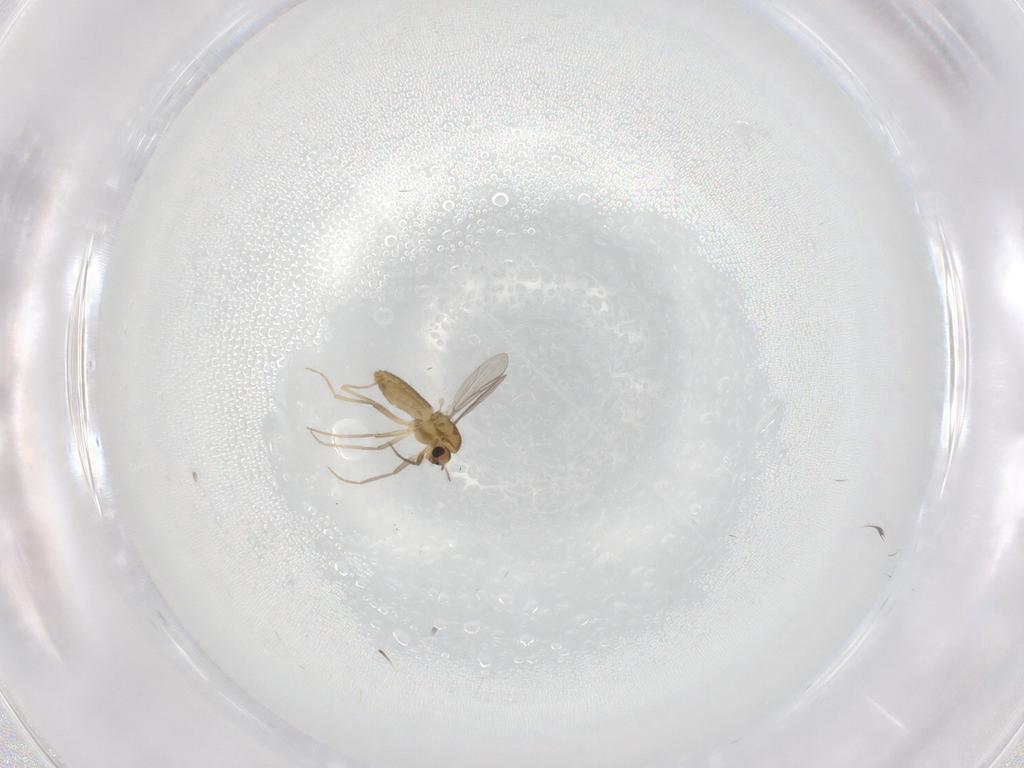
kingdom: Animalia
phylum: Arthropoda
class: Insecta
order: Diptera
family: Chironomidae
